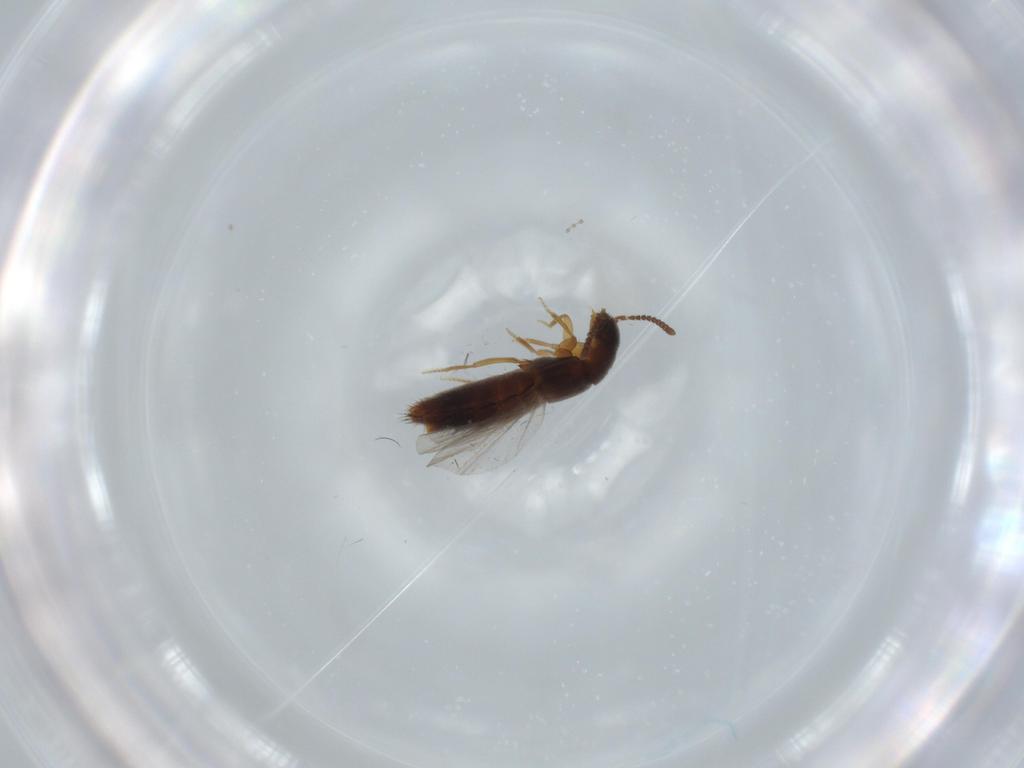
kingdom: Animalia
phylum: Arthropoda
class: Insecta
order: Coleoptera
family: Staphylinidae
